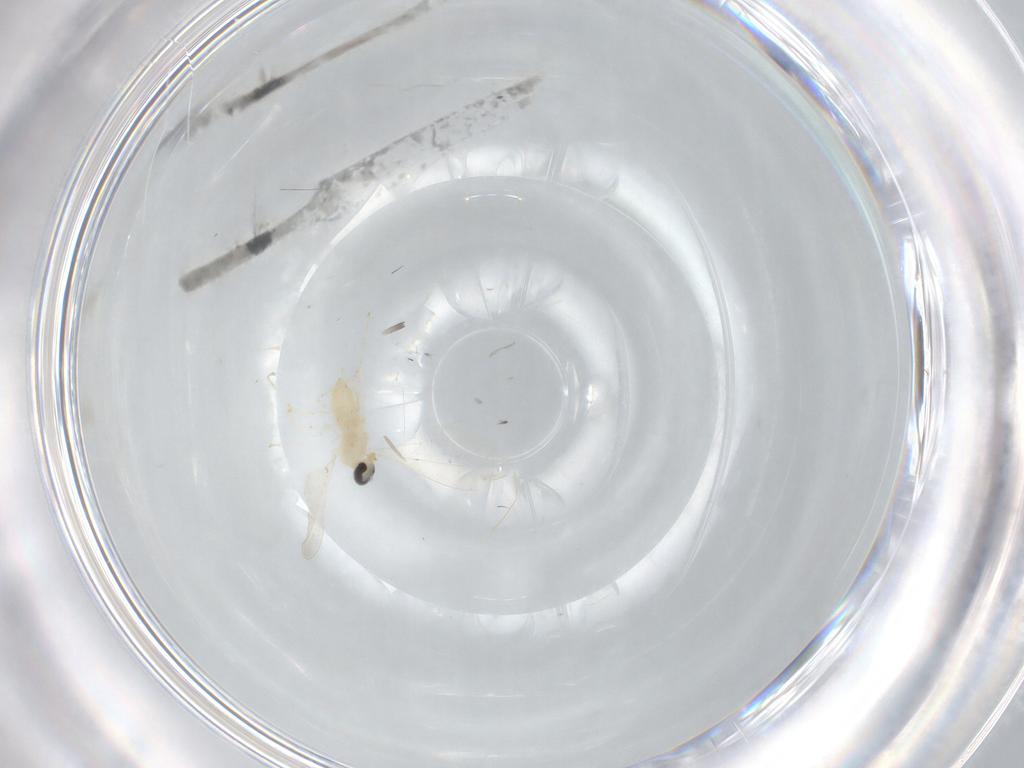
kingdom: Animalia
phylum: Arthropoda
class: Insecta
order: Diptera
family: Cecidomyiidae
